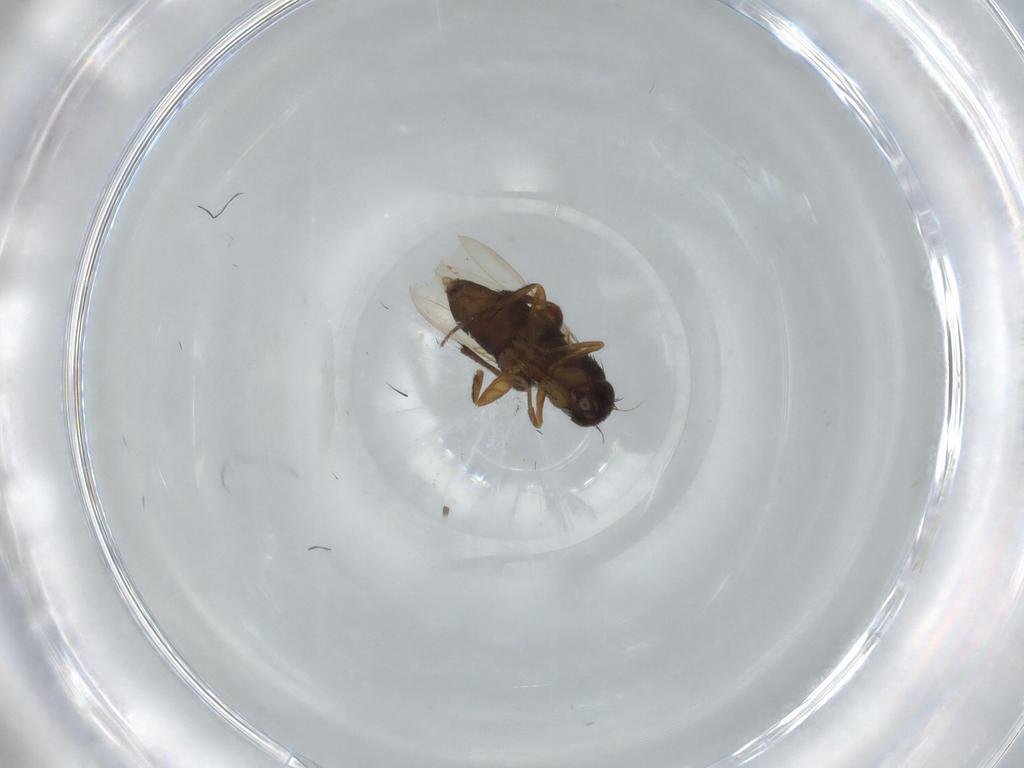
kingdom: Animalia
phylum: Arthropoda
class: Insecta
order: Diptera
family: Phoridae
